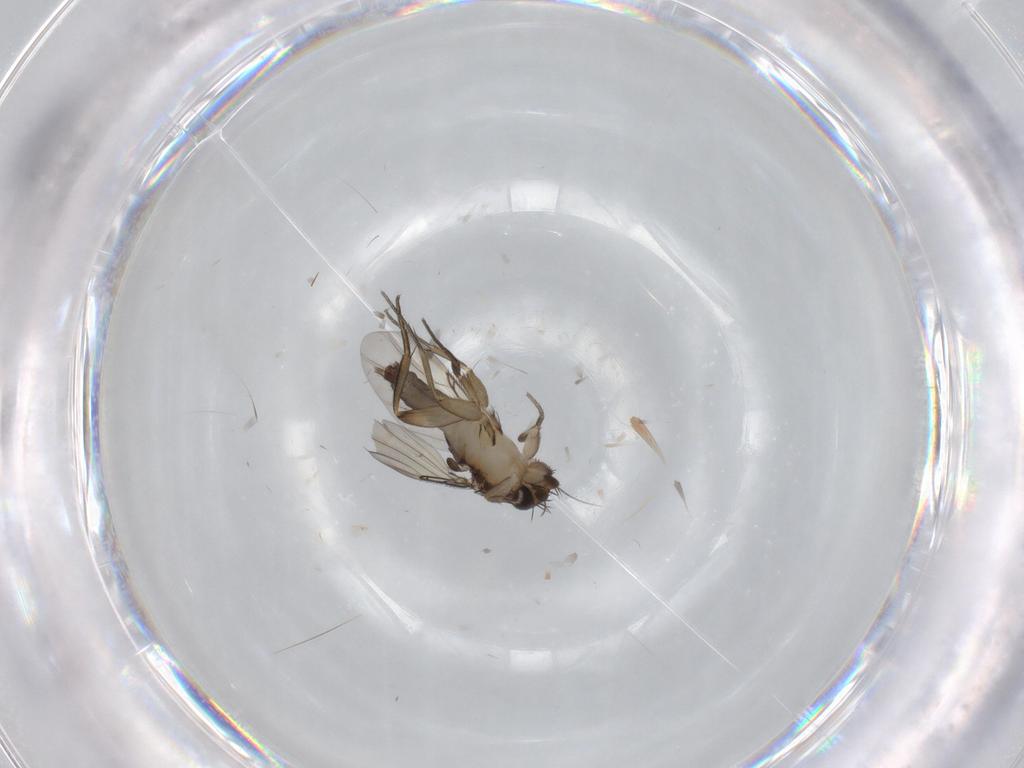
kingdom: Animalia
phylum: Arthropoda
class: Insecta
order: Diptera
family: Phoridae
